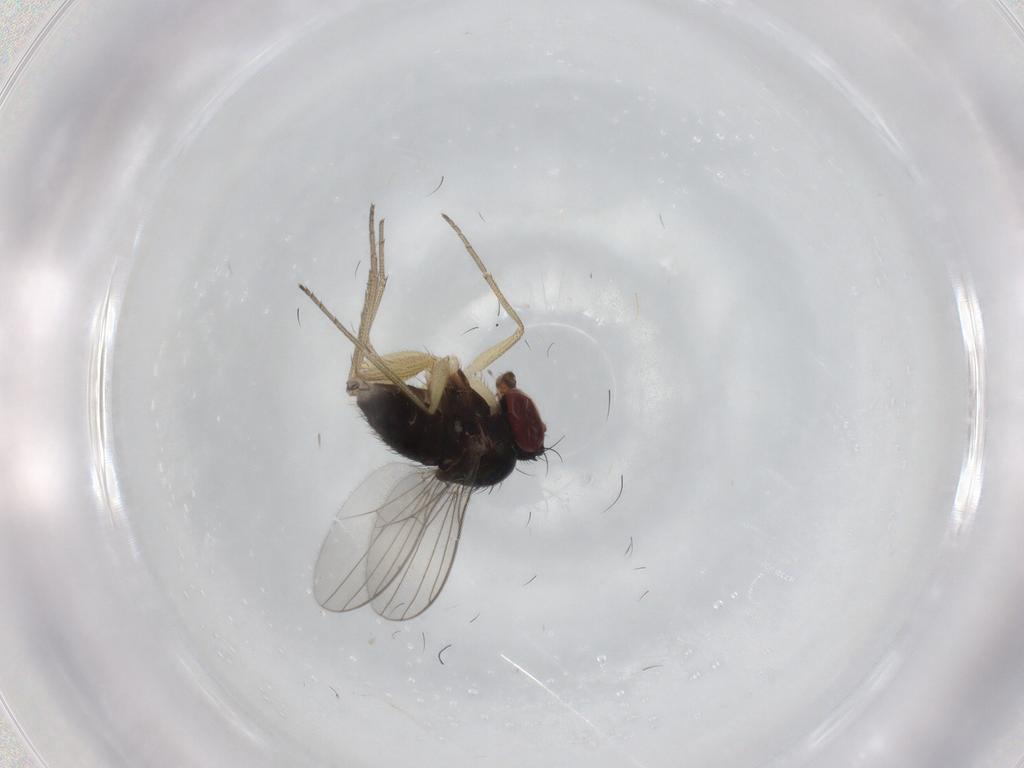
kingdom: Animalia
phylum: Arthropoda
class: Insecta
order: Diptera
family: Dolichopodidae
